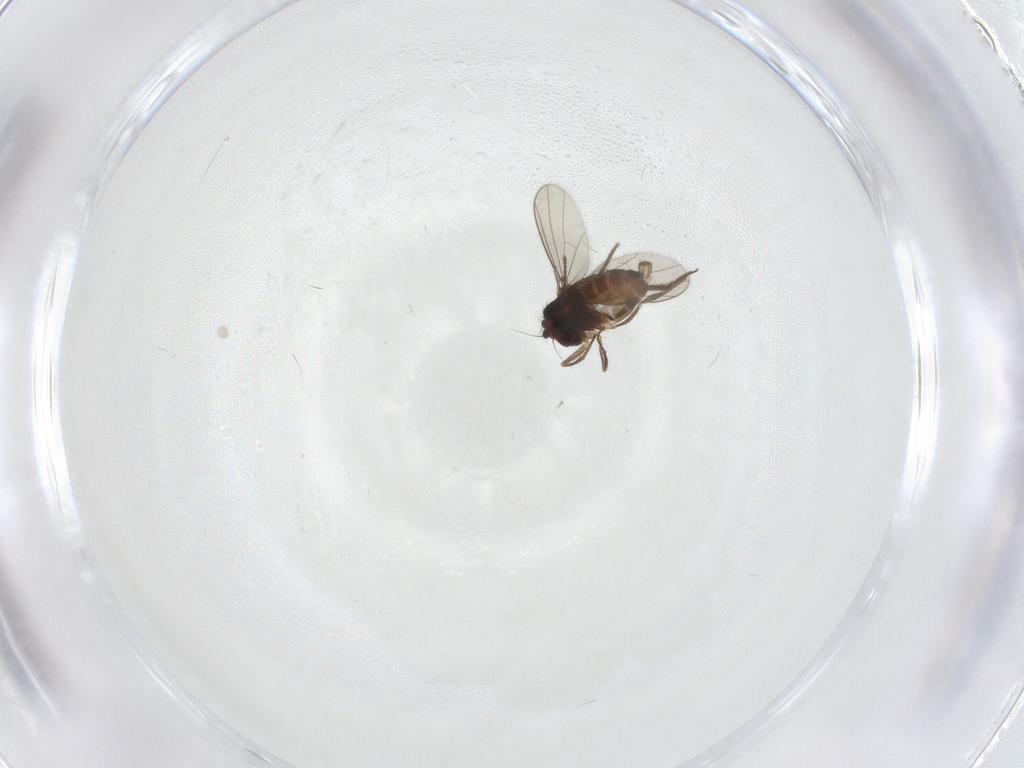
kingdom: Animalia
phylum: Arthropoda
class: Insecta
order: Diptera
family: Dolichopodidae
